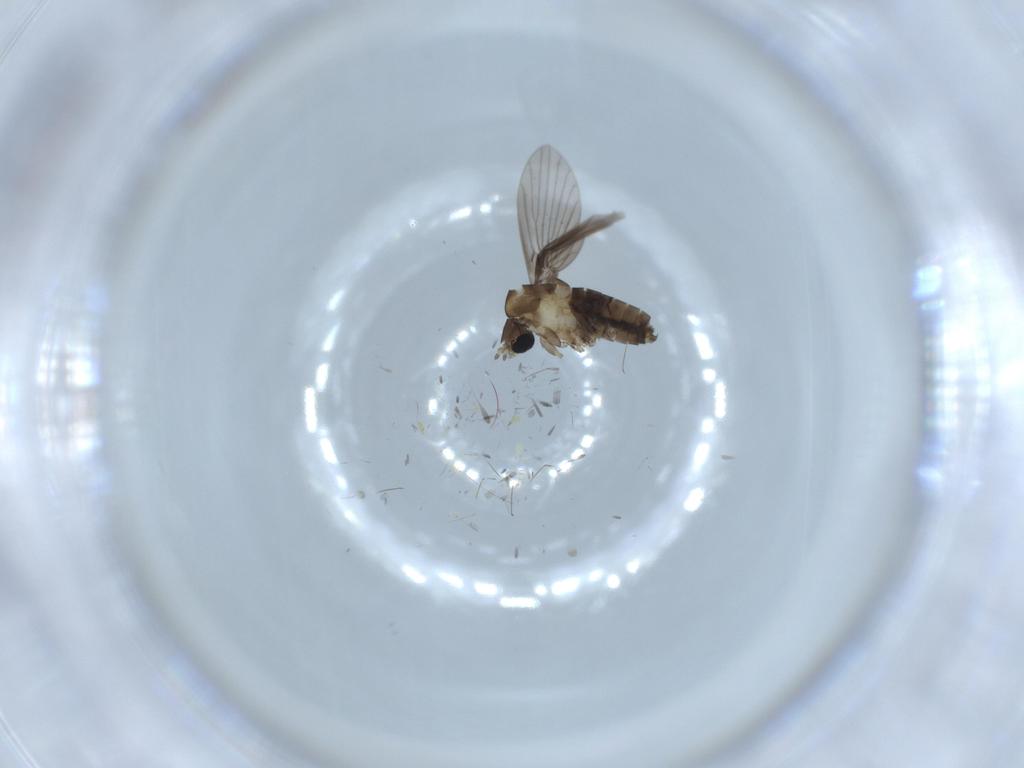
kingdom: Animalia
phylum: Arthropoda
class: Insecta
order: Diptera
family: Psychodidae
